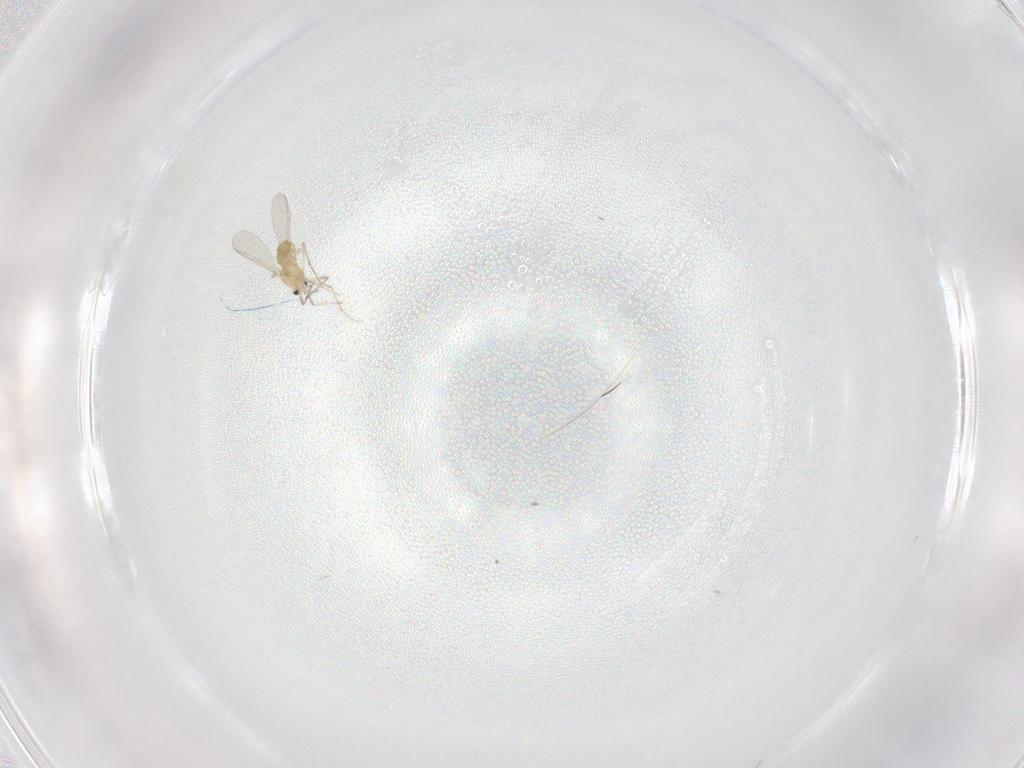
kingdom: Animalia
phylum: Arthropoda
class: Insecta
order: Diptera
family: Chironomidae
